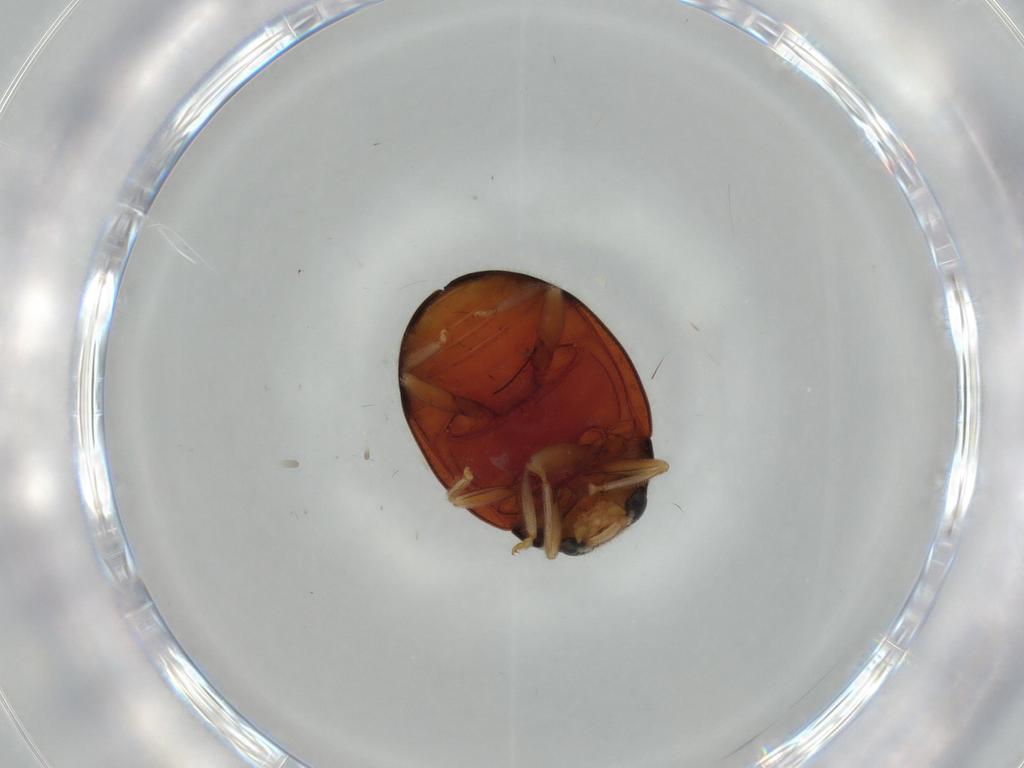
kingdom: Animalia
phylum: Arthropoda
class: Insecta
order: Coleoptera
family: Coccinellidae
